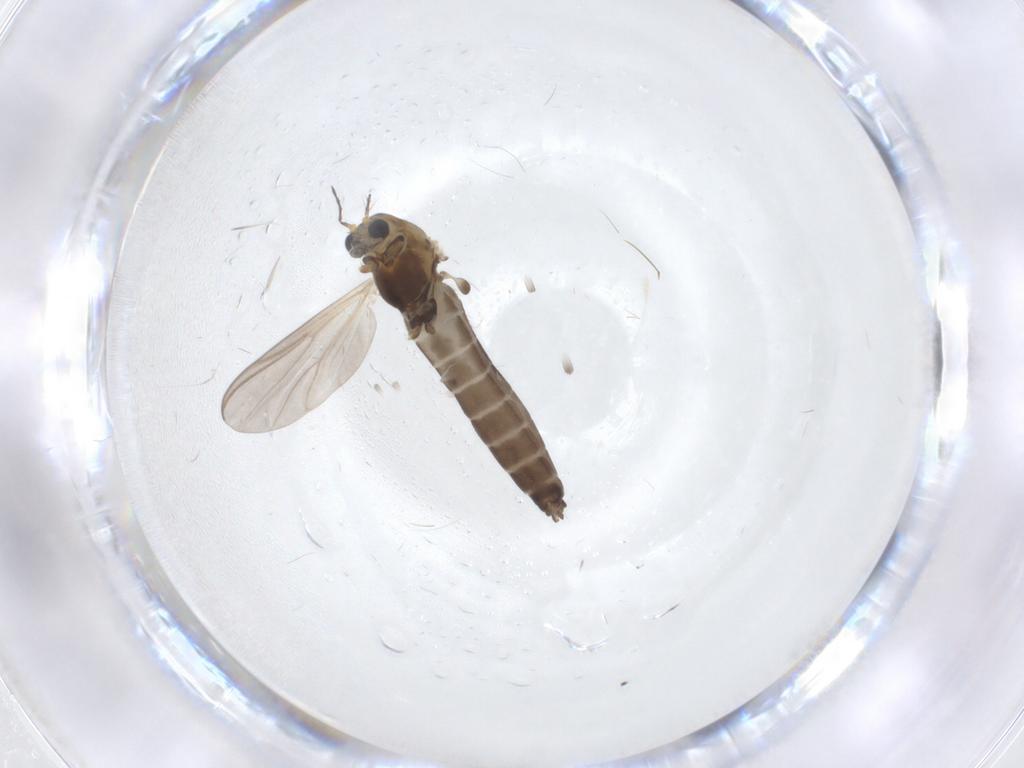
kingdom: Animalia
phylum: Arthropoda
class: Insecta
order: Diptera
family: Chironomidae
